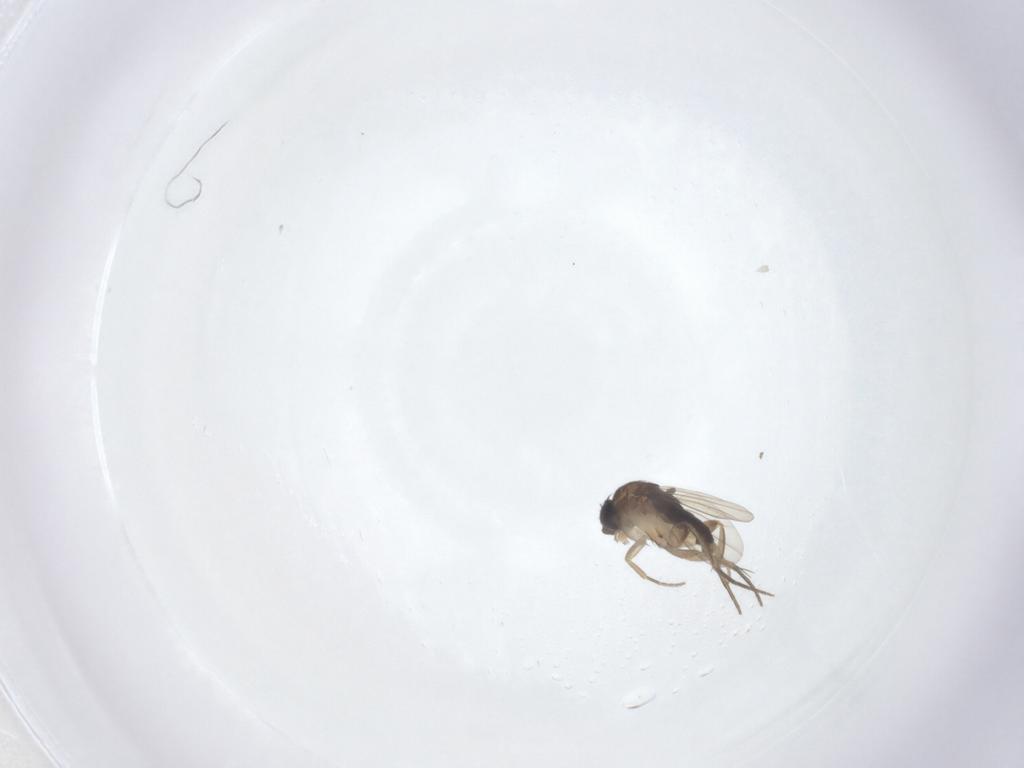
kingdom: Animalia
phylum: Arthropoda
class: Insecta
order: Diptera
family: Phoridae
